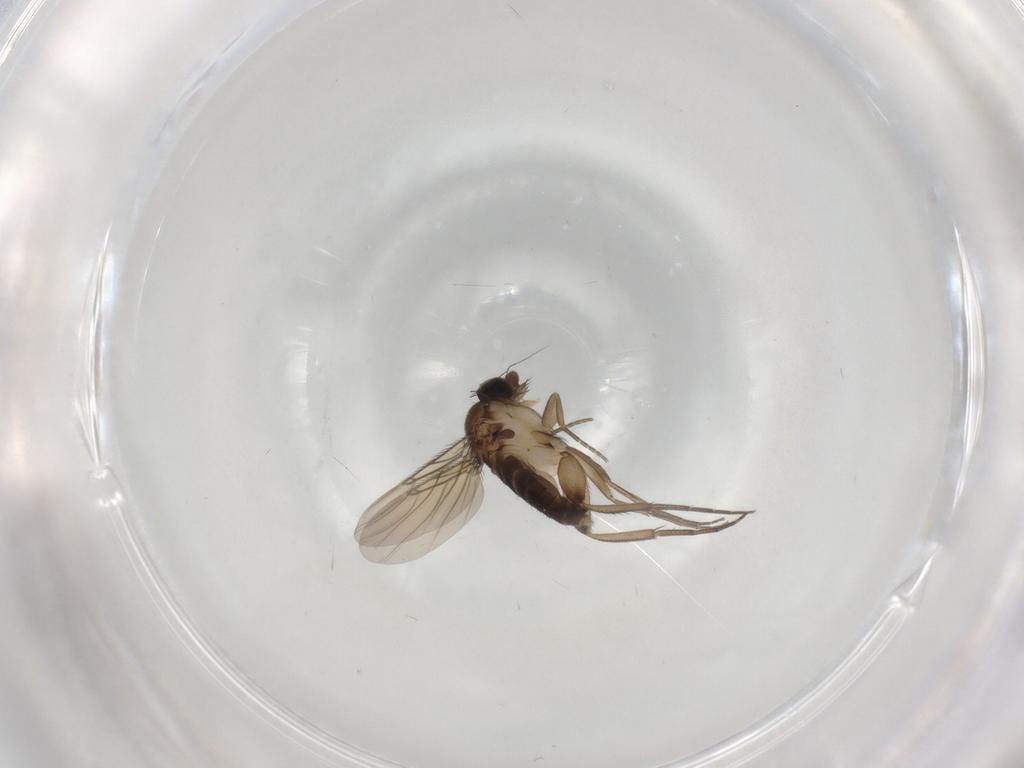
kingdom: Animalia
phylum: Arthropoda
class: Insecta
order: Diptera
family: Phoridae
